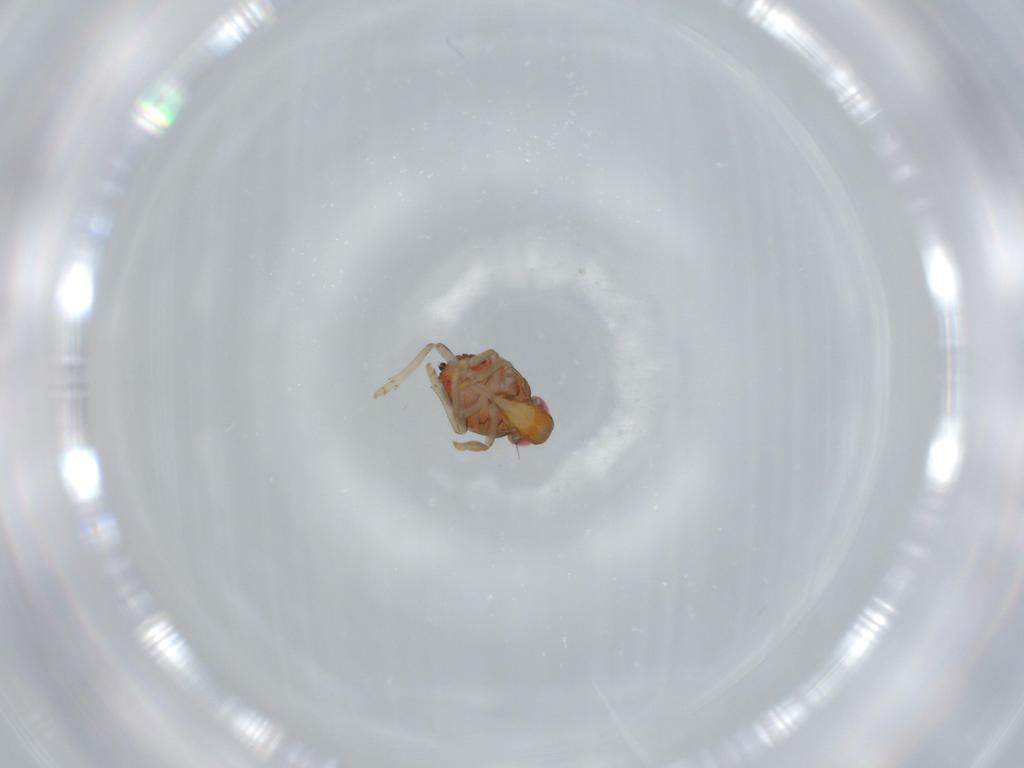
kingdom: Animalia
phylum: Arthropoda
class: Insecta
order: Hemiptera
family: Issidae
